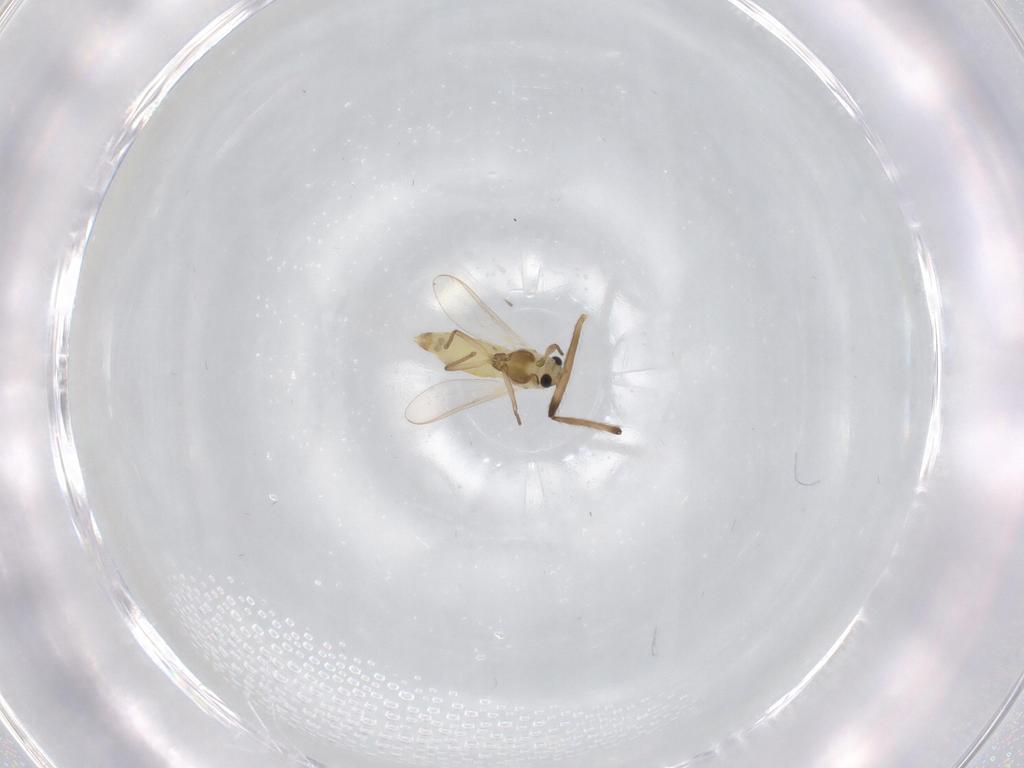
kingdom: Animalia
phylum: Arthropoda
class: Insecta
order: Diptera
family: Chironomidae
